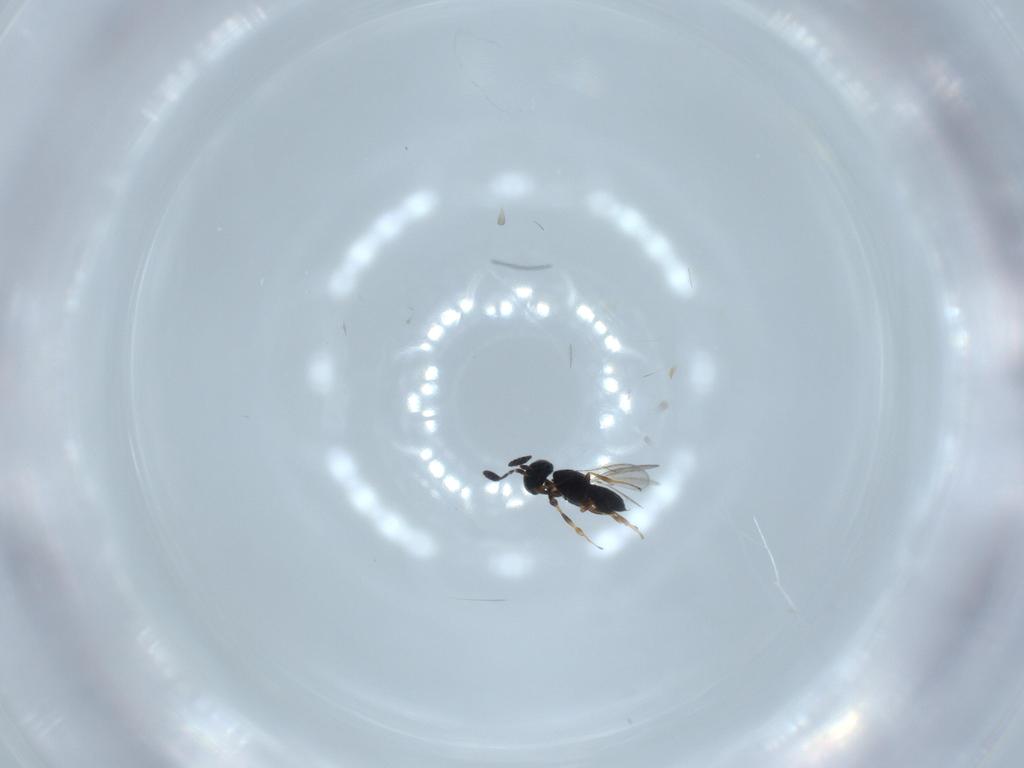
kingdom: Animalia
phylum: Arthropoda
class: Insecta
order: Hymenoptera
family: Scelionidae
